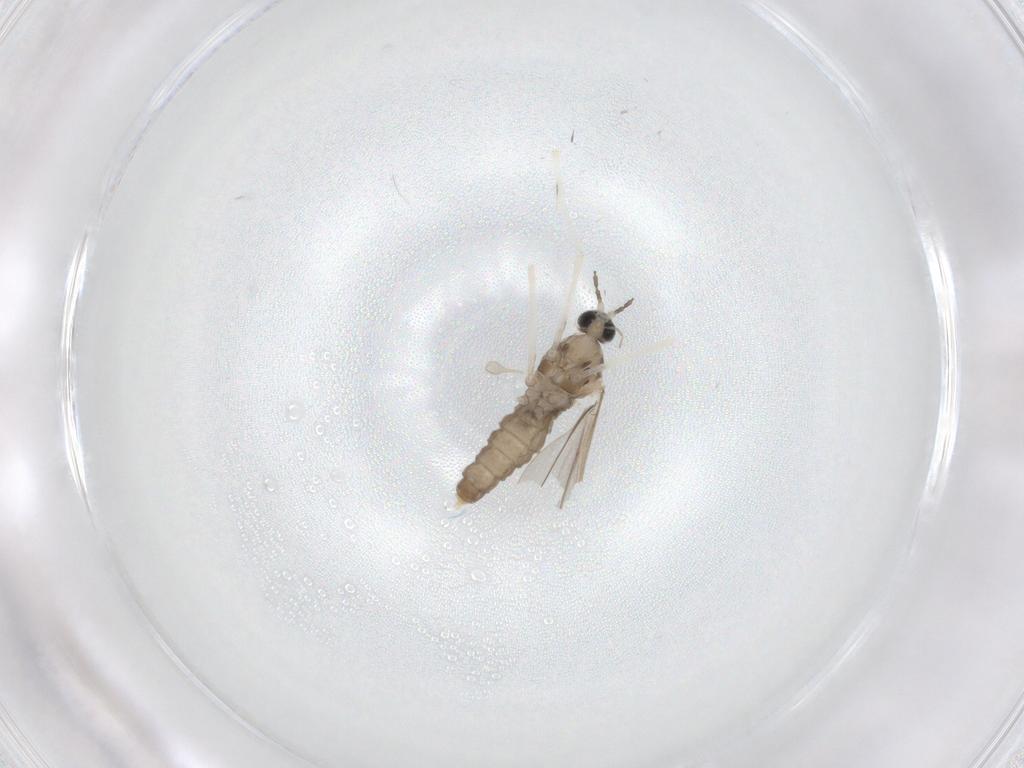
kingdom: Animalia
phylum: Arthropoda
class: Insecta
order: Diptera
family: Cecidomyiidae
